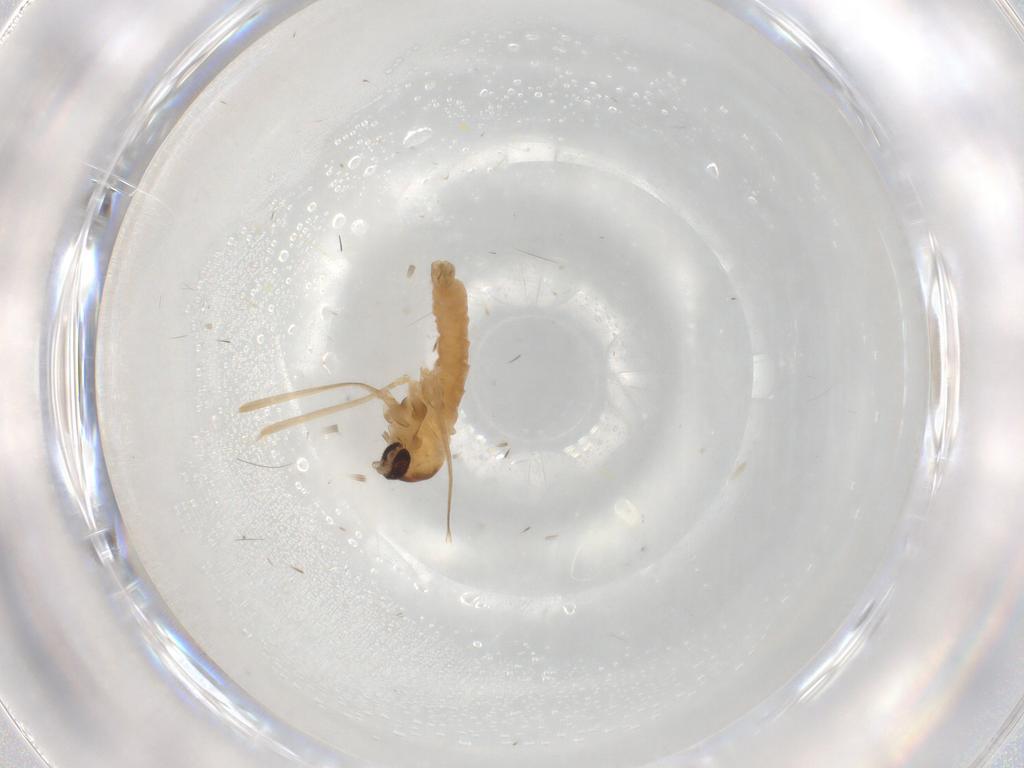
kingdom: Animalia
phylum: Arthropoda
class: Insecta
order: Diptera
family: Cecidomyiidae
